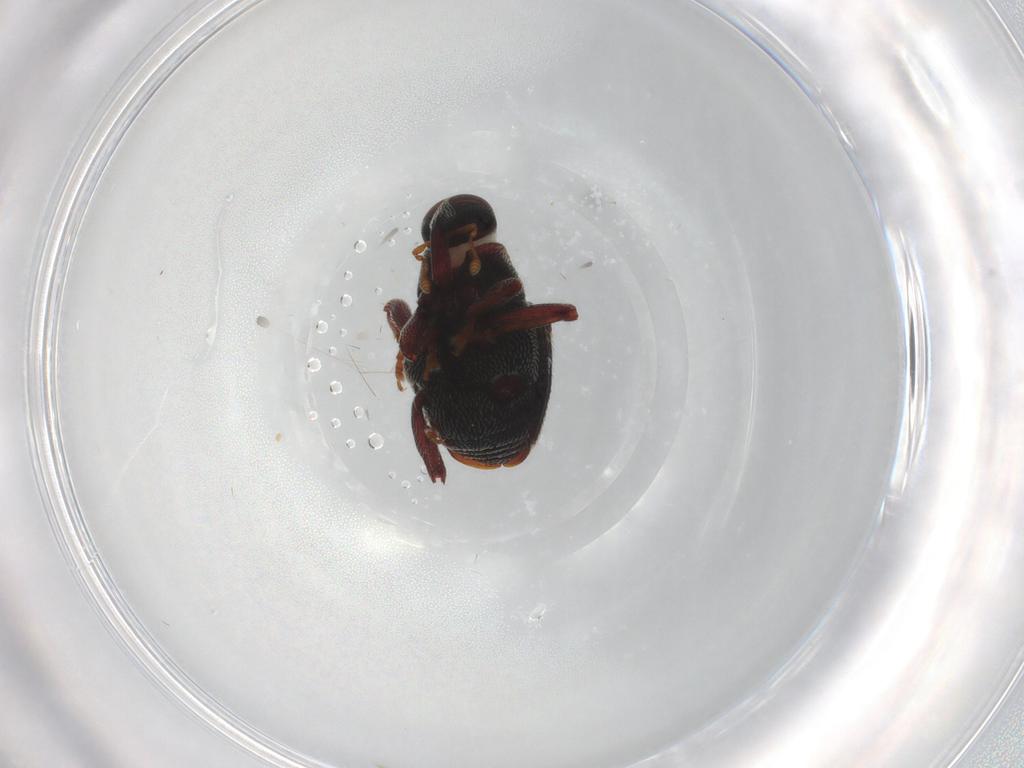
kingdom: Animalia
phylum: Arthropoda
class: Insecta
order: Coleoptera
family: Curculionidae
